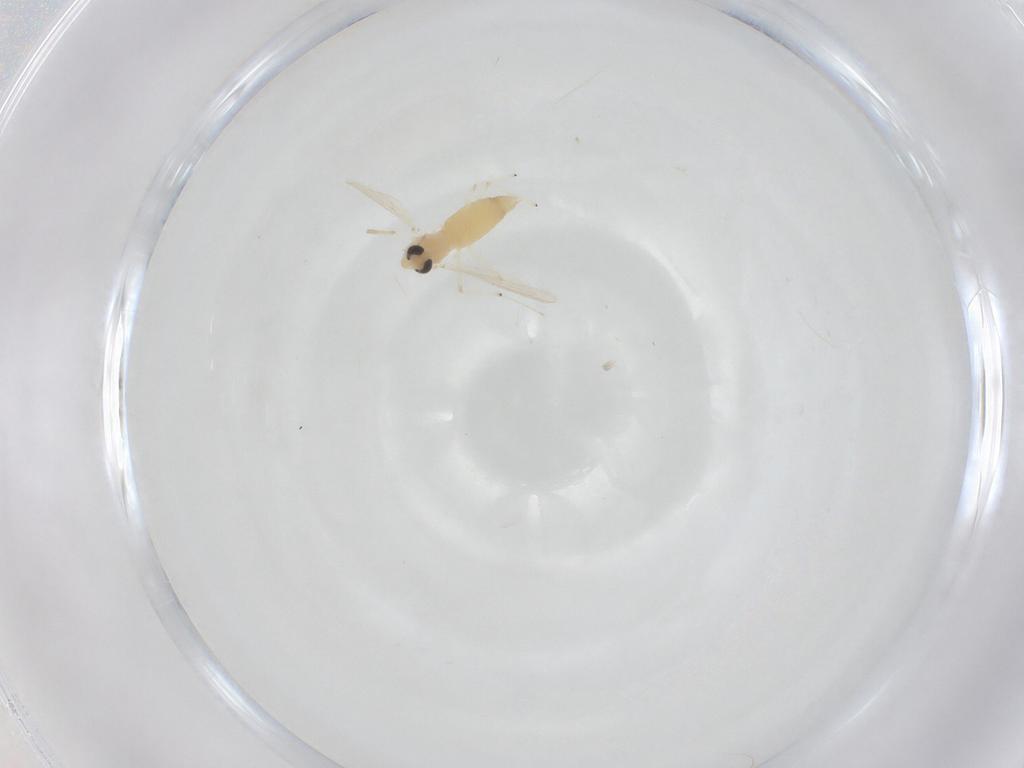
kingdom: Animalia
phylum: Arthropoda
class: Insecta
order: Diptera
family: Chironomidae
